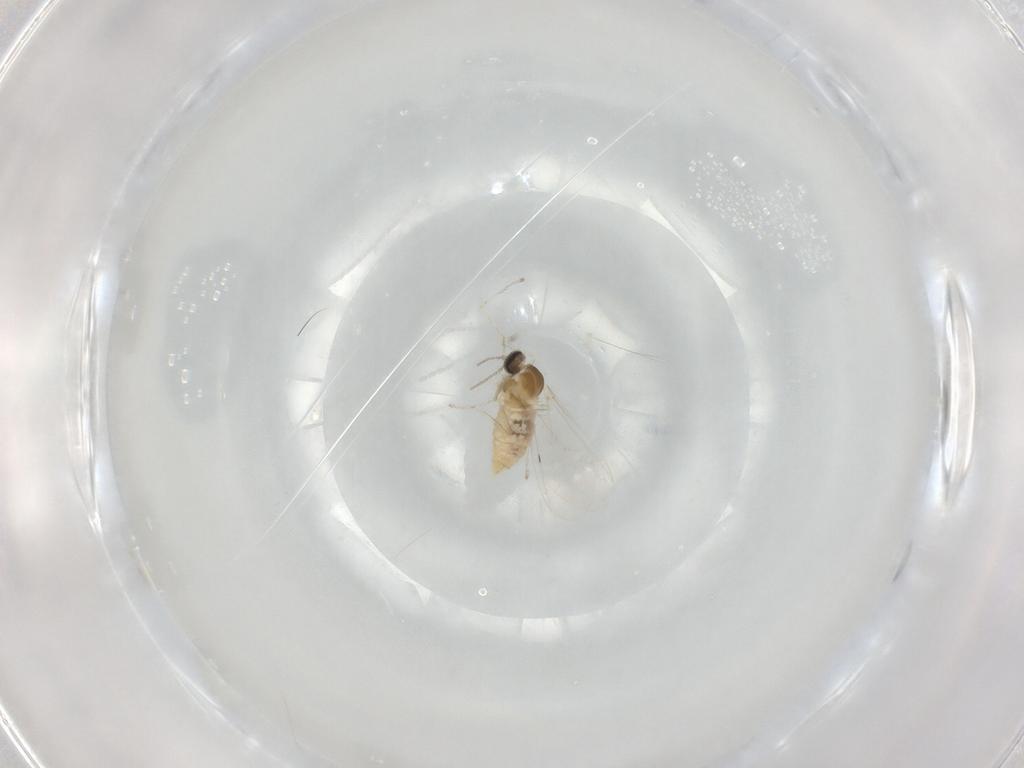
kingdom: Animalia
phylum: Arthropoda
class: Insecta
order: Diptera
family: Cecidomyiidae
